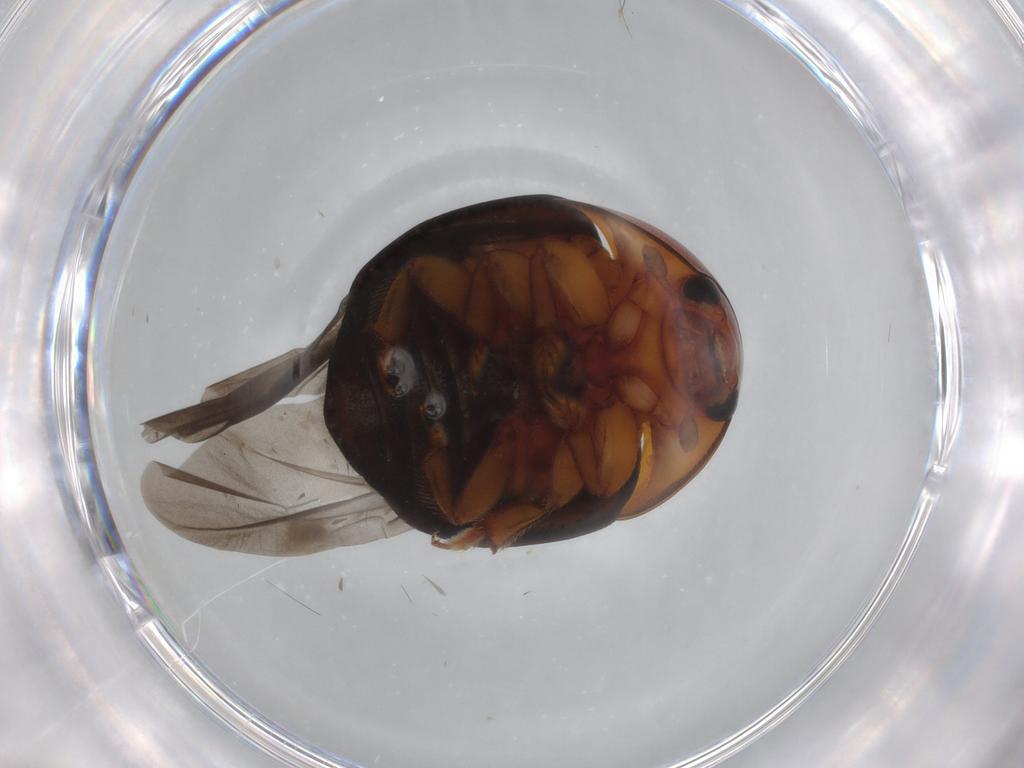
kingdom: Animalia
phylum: Arthropoda
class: Insecta
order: Coleoptera
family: Nitidulidae
